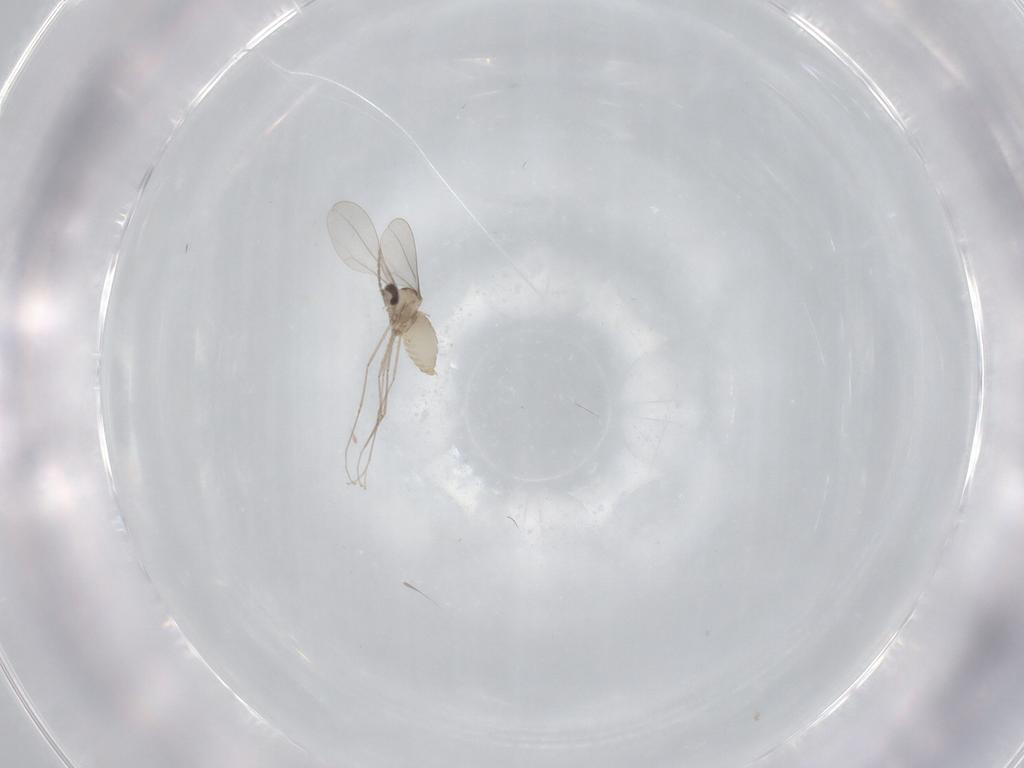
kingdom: Animalia
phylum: Arthropoda
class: Insecta
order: Diptera
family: Cecidomyiidae
